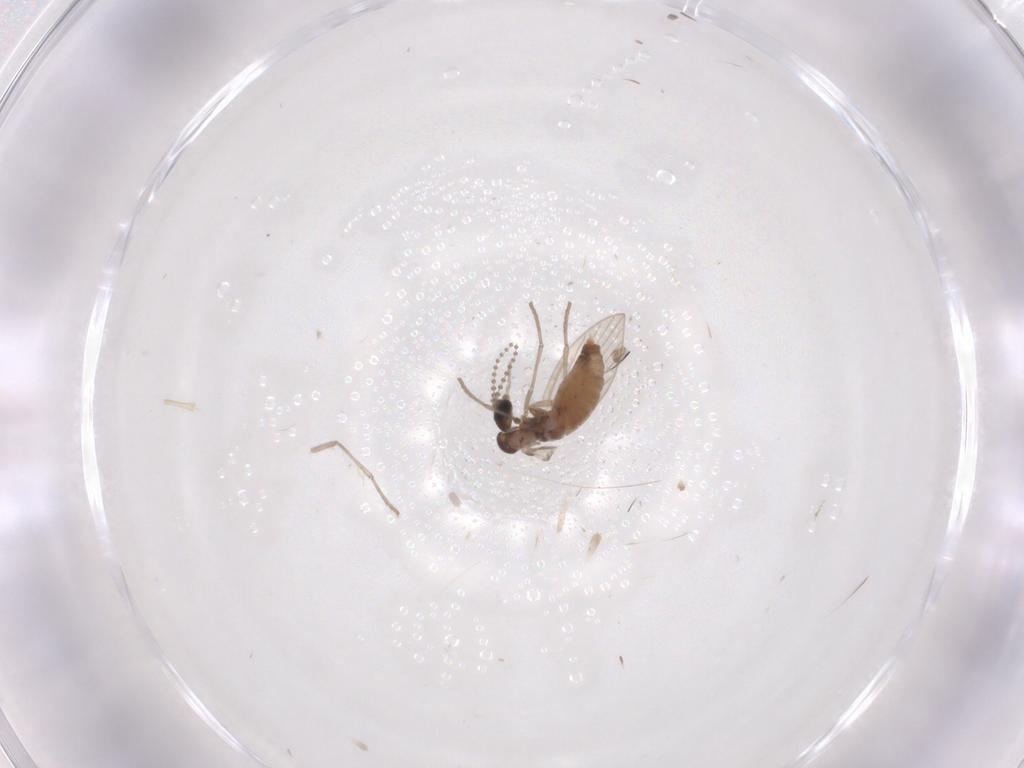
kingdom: Animalia
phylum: Arthropoda
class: Insecta
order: Diptera
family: Psychodidae
